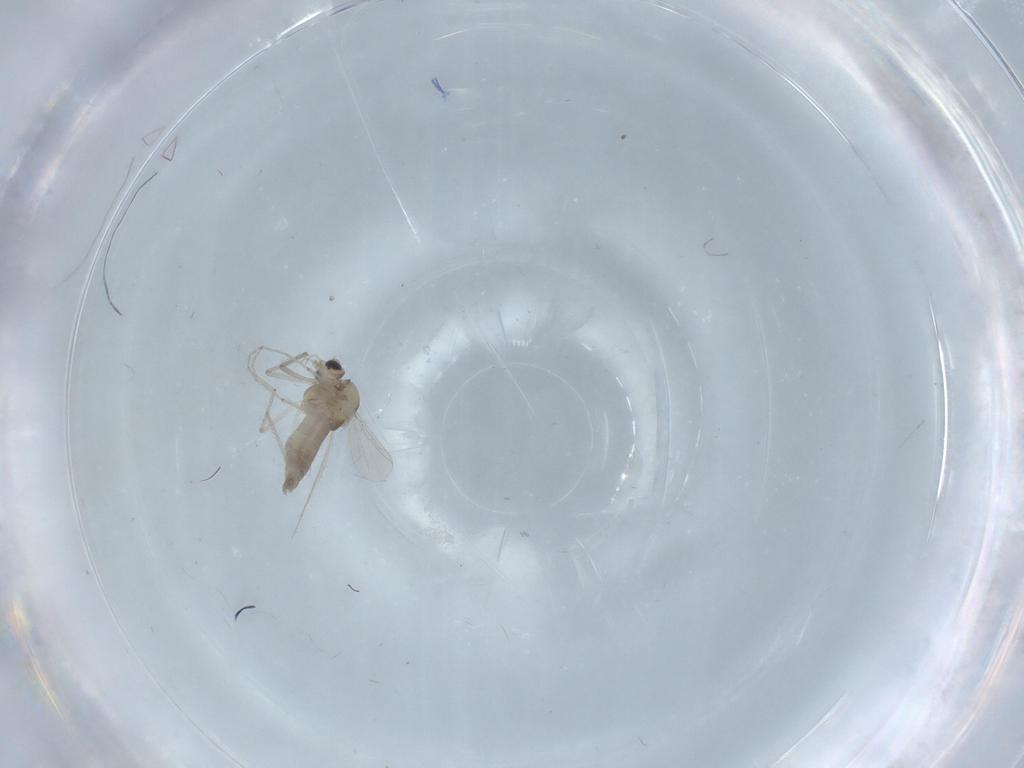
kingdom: Animalia
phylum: Arthropoda
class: Insecta
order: Diptera
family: Chironomidae
